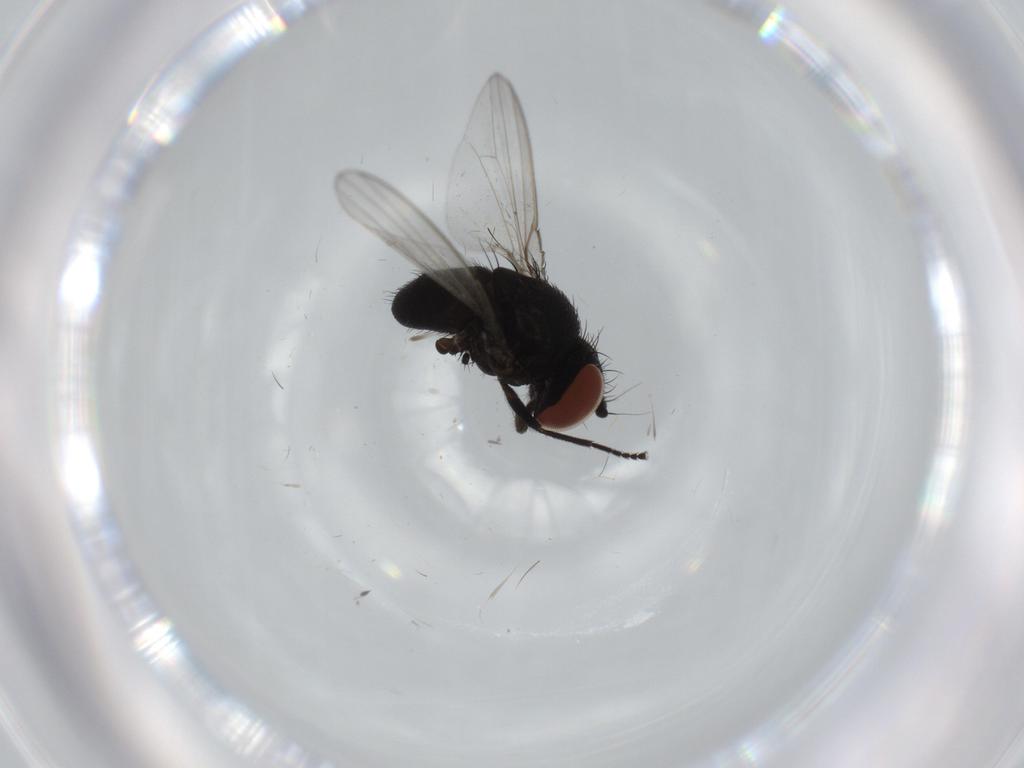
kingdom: Animalia
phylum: Arthropoda
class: Insecta
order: Diptera
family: Milichiidae
